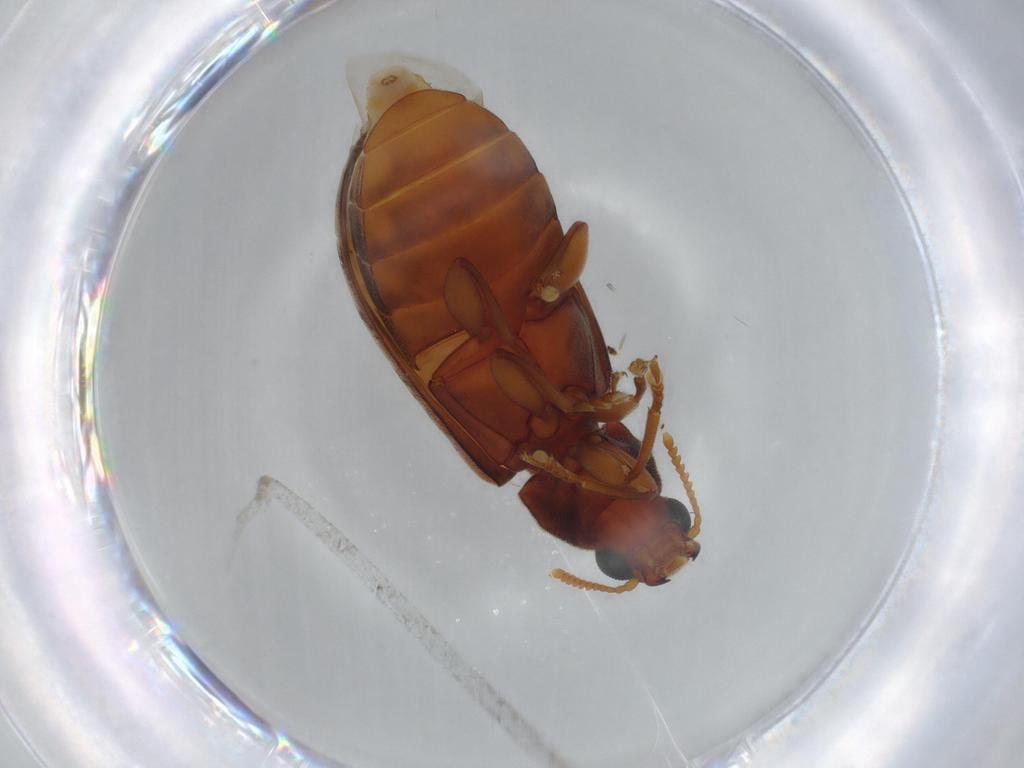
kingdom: Animalia
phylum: Arthropoda
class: Insecta
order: Coleoptera
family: Mycteridae
